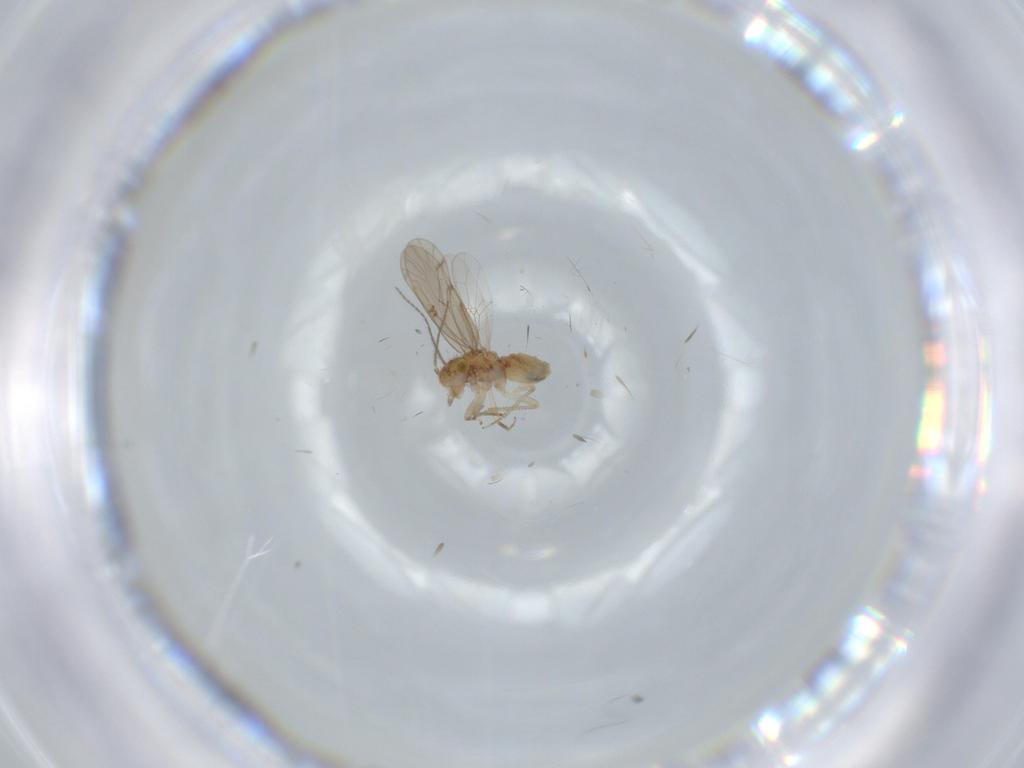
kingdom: Animalia
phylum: Arthropoda
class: Insecta
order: Psocodea
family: Ectopsocidae
